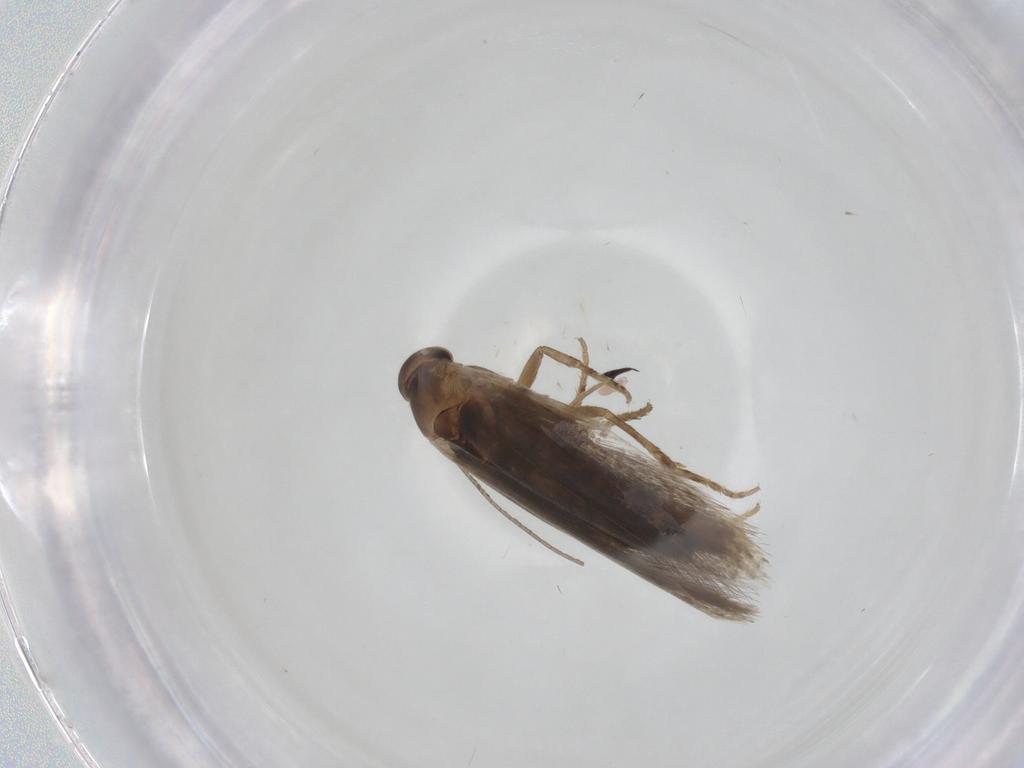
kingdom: Animalia
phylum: Arthropoda
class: Insecta
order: Lepidoptera
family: Elachistidae
